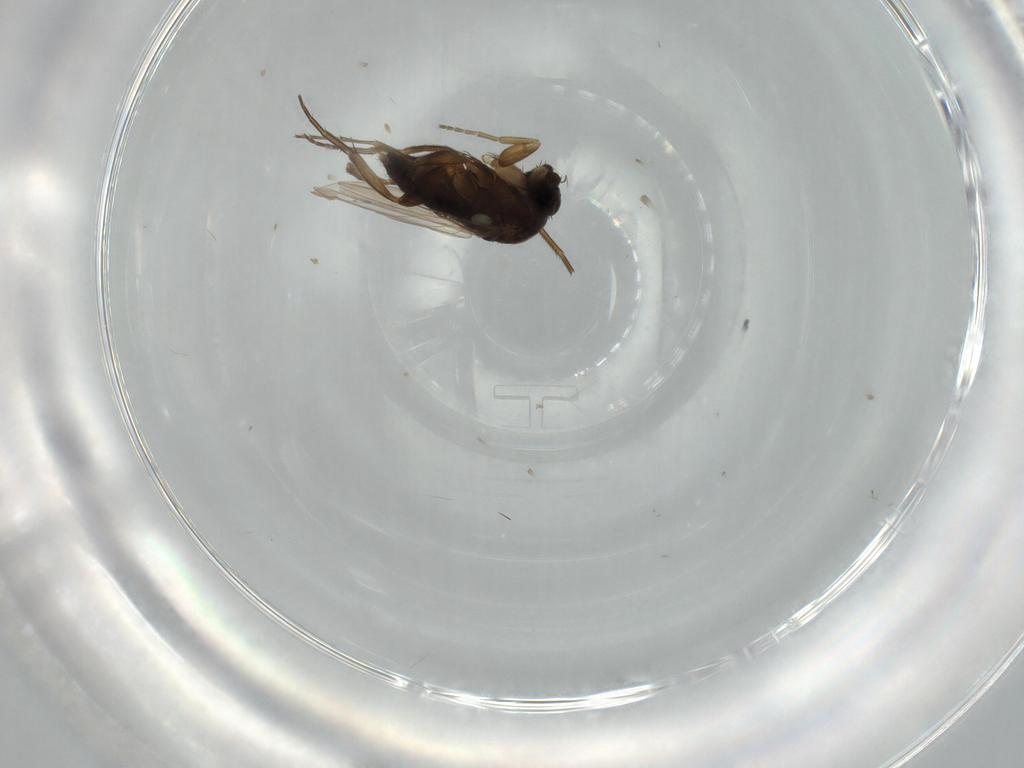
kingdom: Animalia
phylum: Arthropoda
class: Insecta
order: Diptera
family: Phoridae
